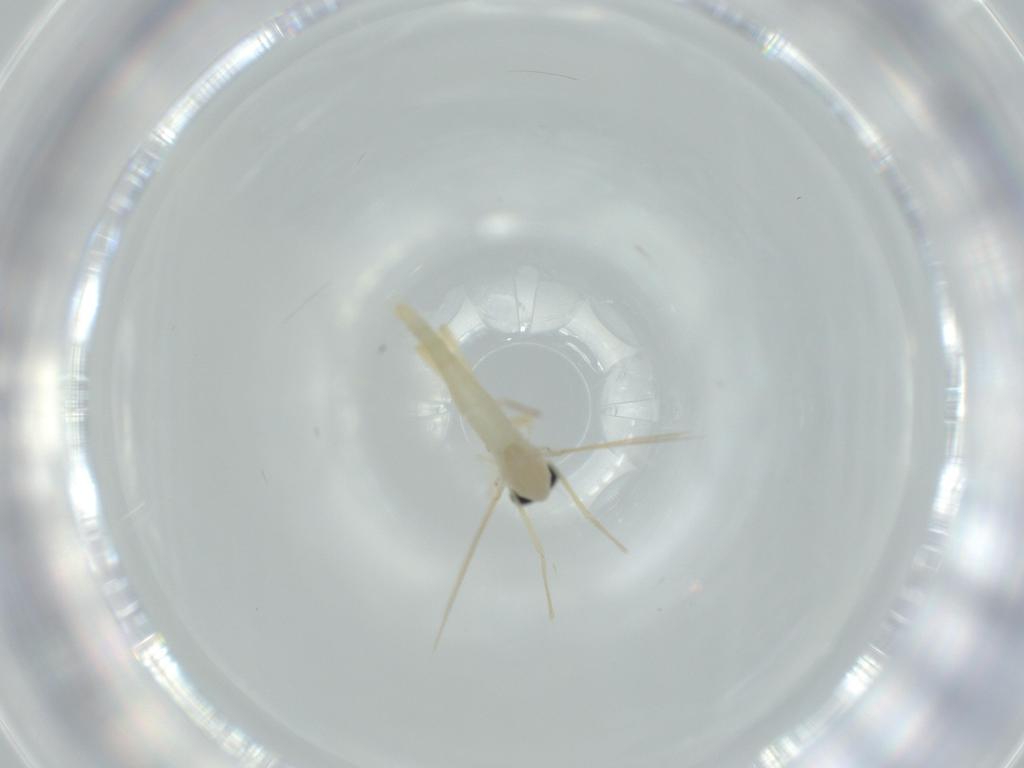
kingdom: Animalia
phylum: Arthropoda
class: Insecta
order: Diptera
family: Chironomidae
